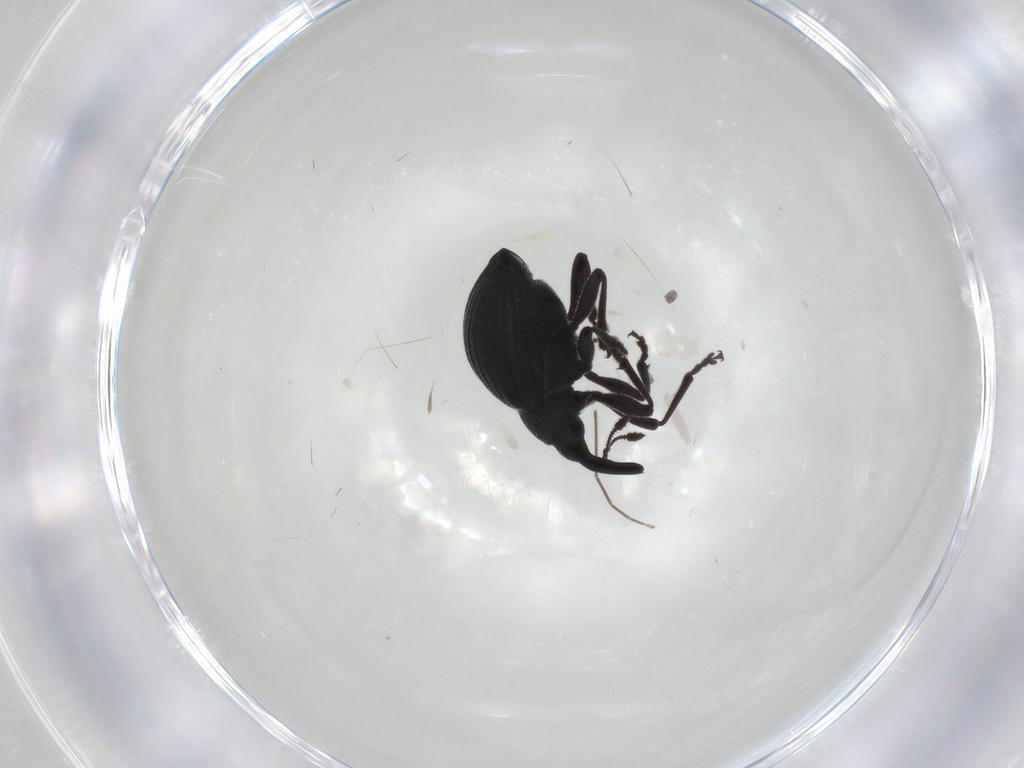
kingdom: Animalia
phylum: Arthropoda
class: Insecta
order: Coleoptera
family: Brentidae
